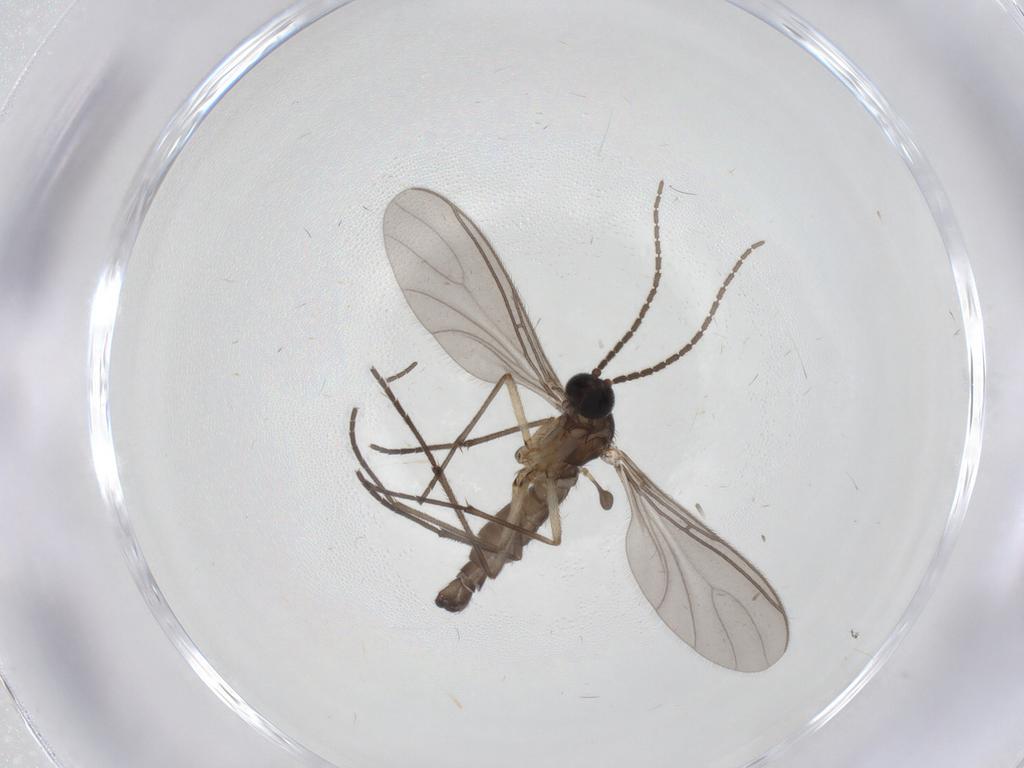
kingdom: Animalia
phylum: Arthropoda
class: Insecta
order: Diptera
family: Sciaridae
